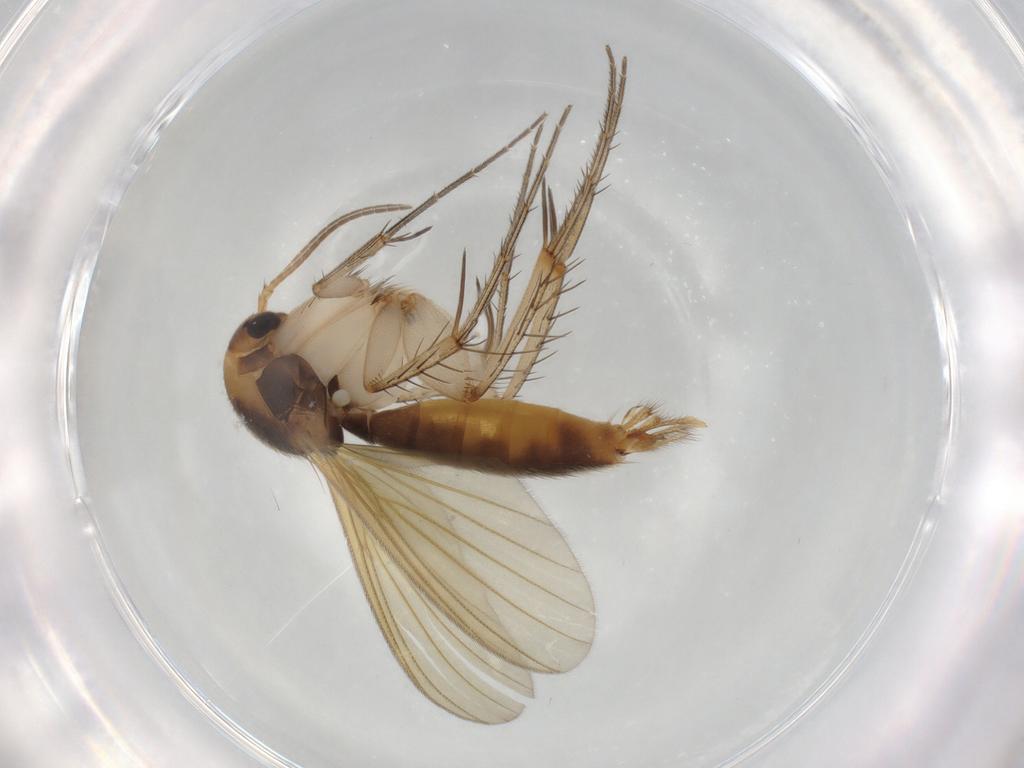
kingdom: Animalia
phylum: Arthropoda
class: Insecta
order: Diptera
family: Mycetophilidae
